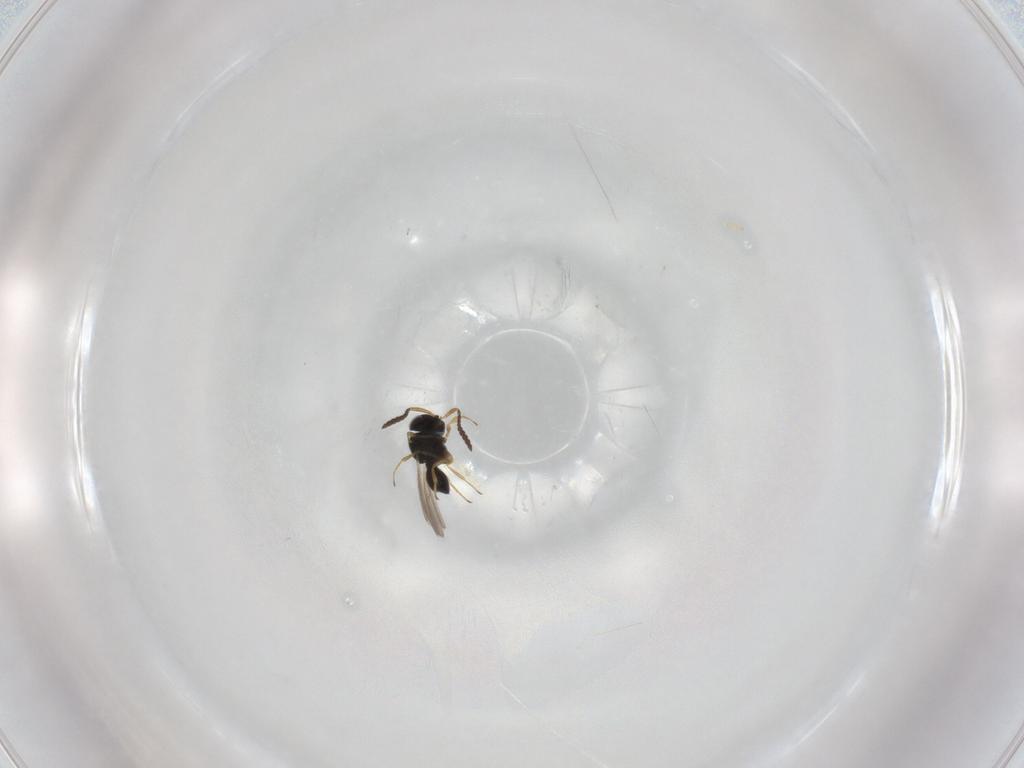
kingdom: Animalia
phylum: Arthropoda
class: Insecta
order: Hymenoptera
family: Scelionidae
